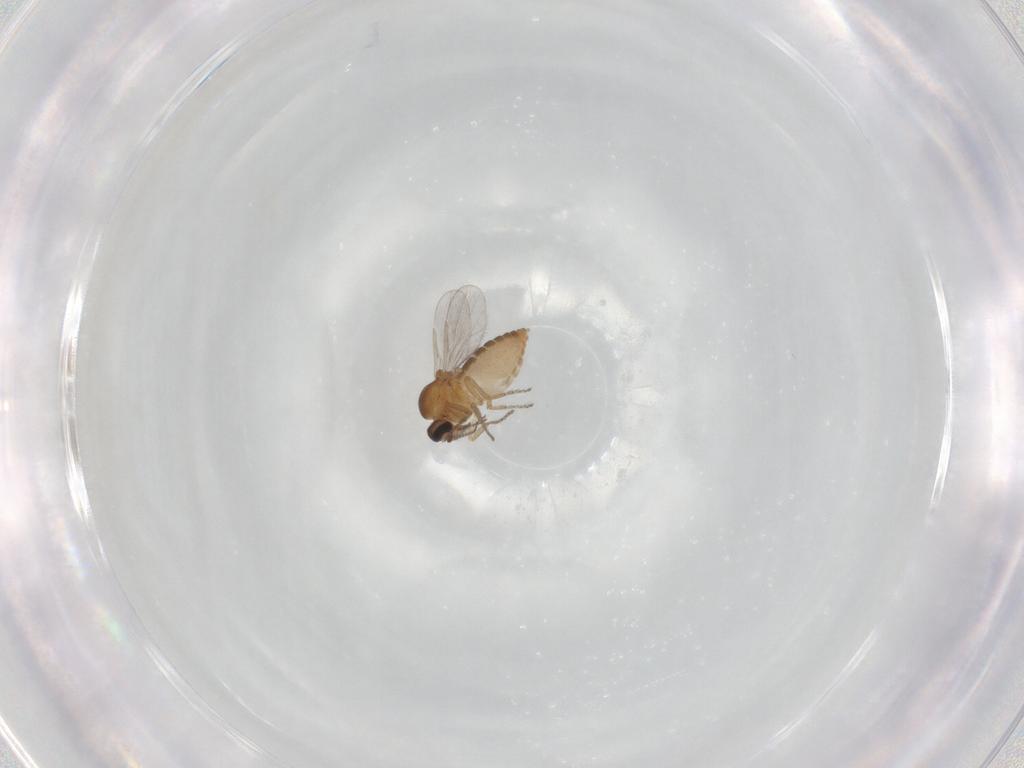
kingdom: Animalia
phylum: Arthropoda
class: Insecta
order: Diptera
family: Ceratopogonidae
